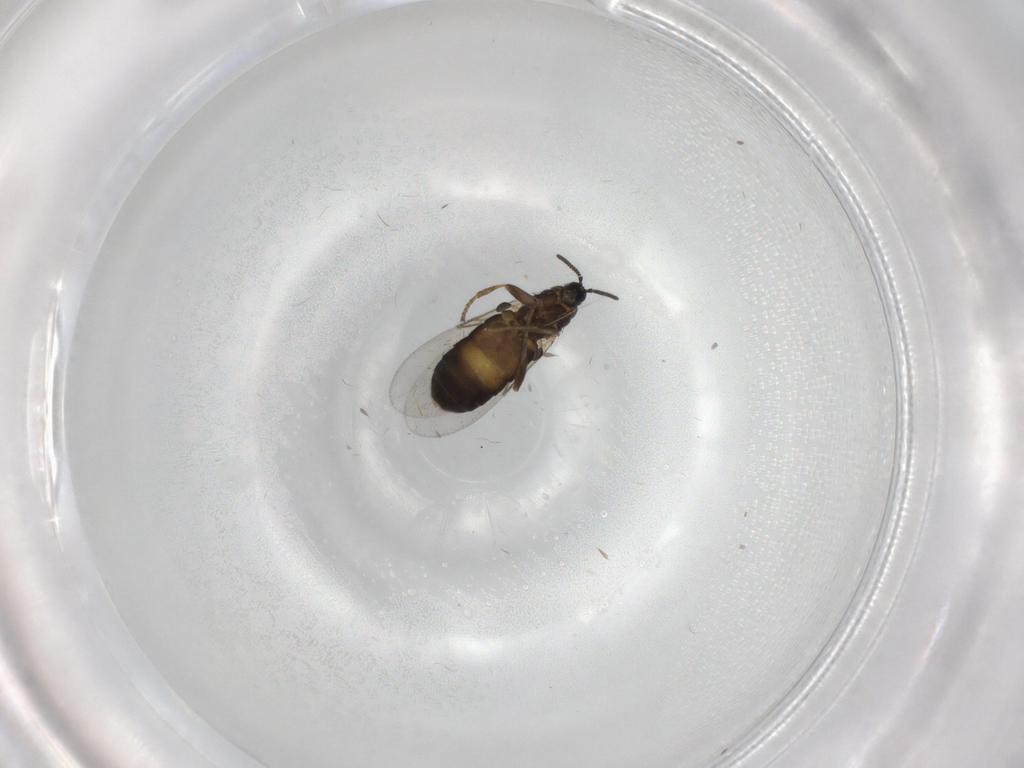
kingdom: Animalia
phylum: Arthropoda
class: Insecta
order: Diptera
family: Scatopsidae
